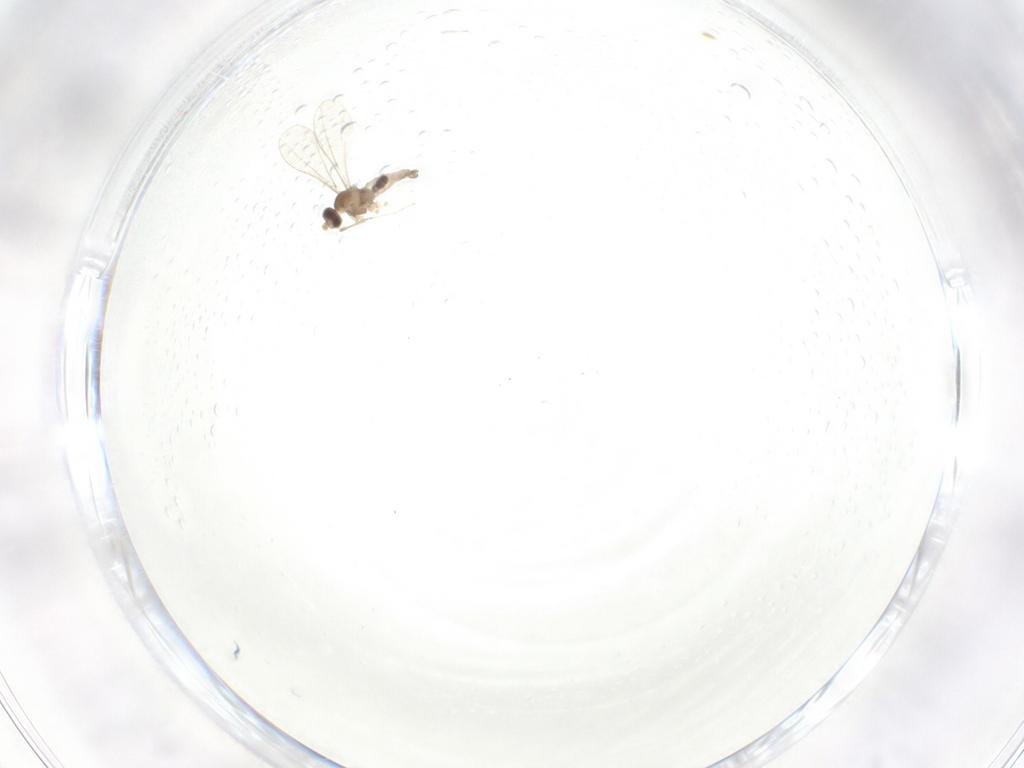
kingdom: Animalia
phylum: Arthropoda
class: Insecta
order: Diptera
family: Cecidomyiidae
